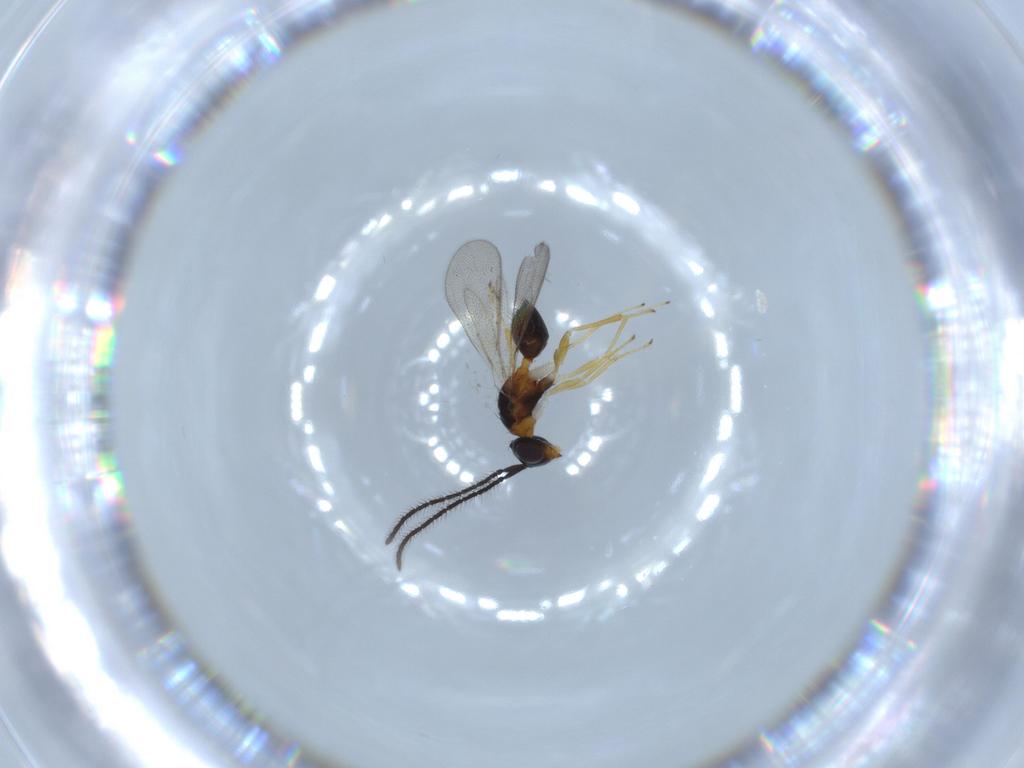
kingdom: Animalia
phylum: Arthropoda
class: Insecta
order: Hymenoptera
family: Diparidae
